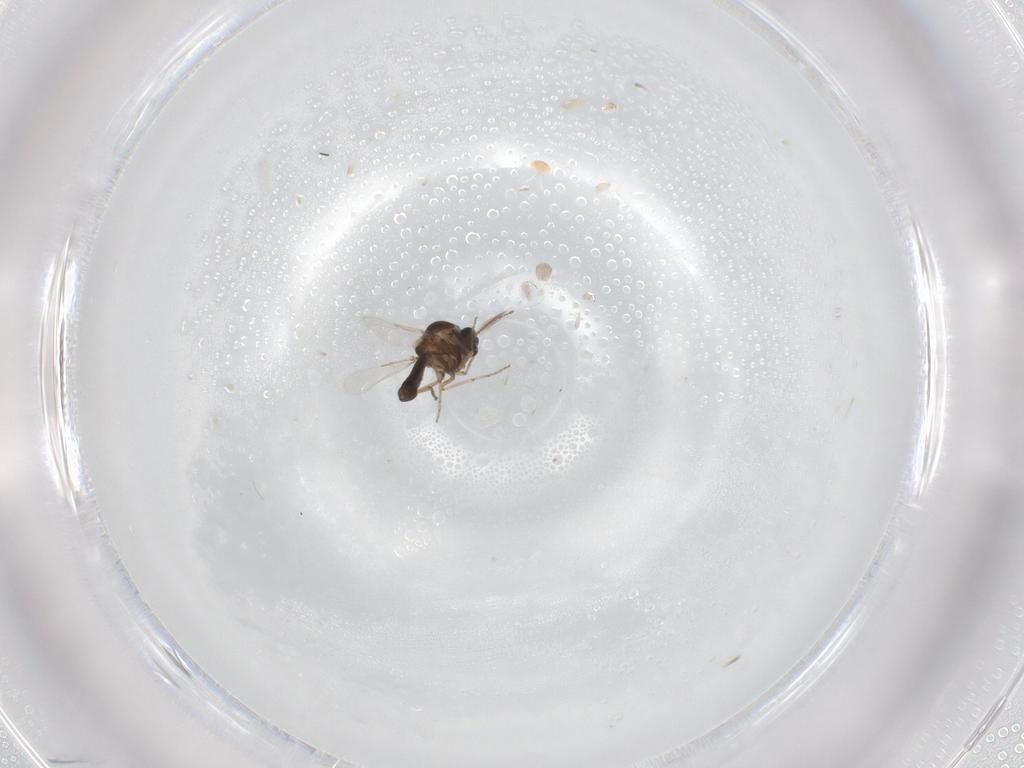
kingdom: Animalia
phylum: Arthropoda
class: Insecta
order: Diptera
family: Ceratopogonidae
